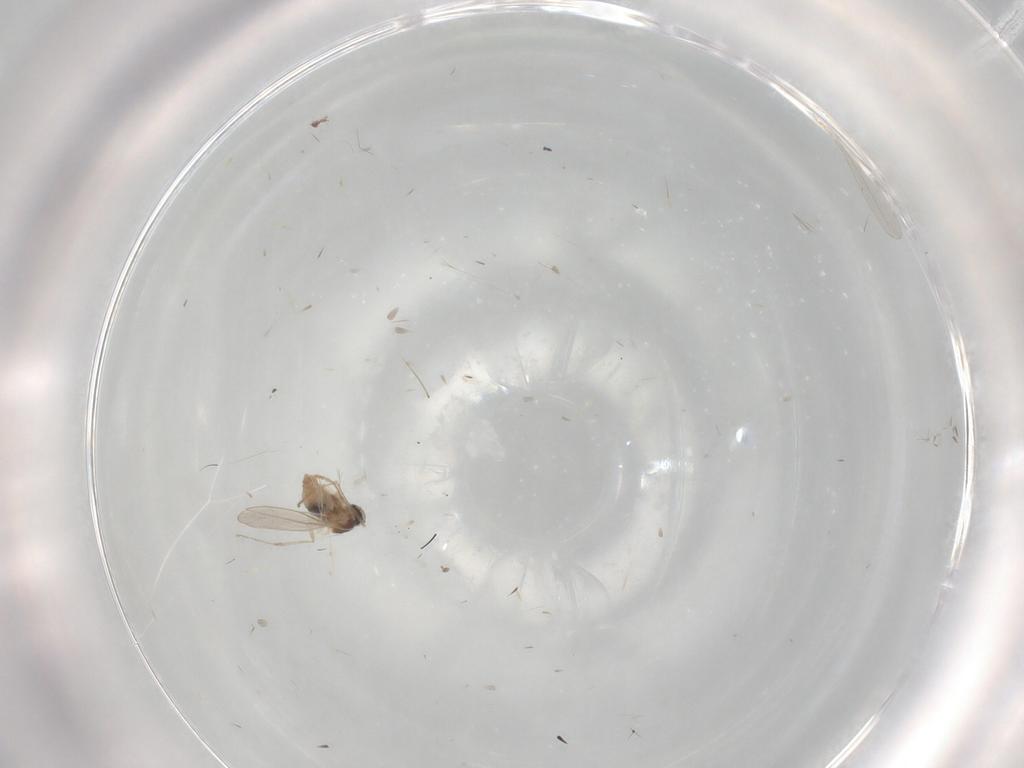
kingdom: Animalia
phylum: Arthropoda
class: Insecta
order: Diptera
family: Cecidomyiidae
